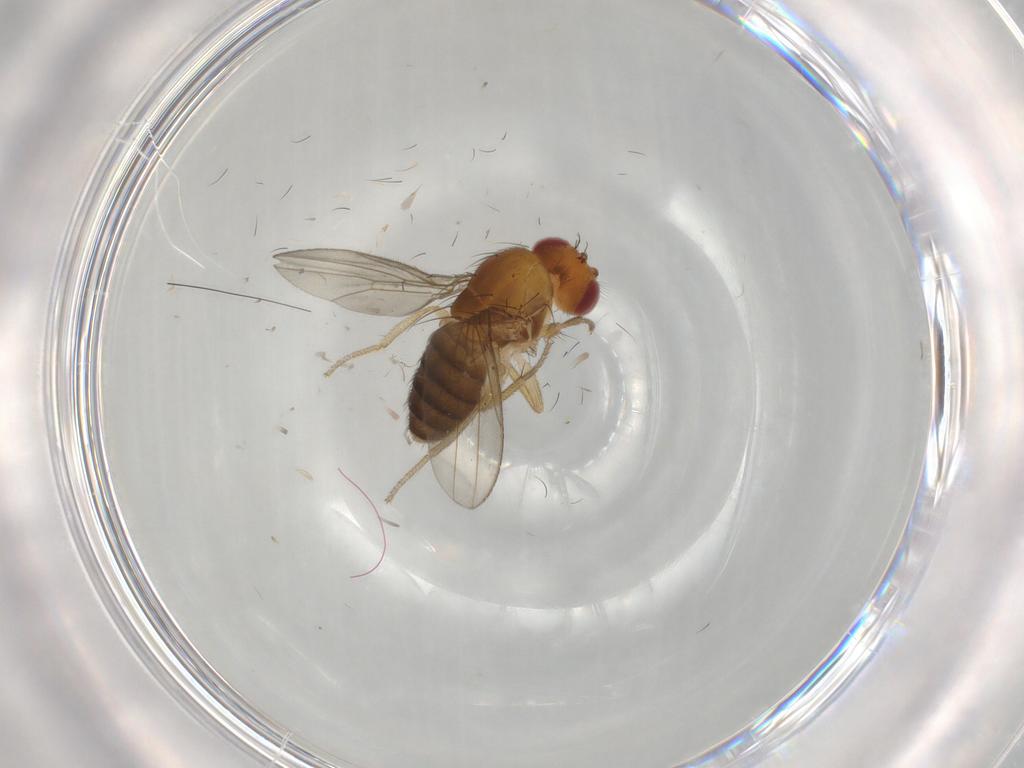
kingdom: Animalia
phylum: Arthropoda
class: Insecta
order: Diptera
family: Drosophilidae
